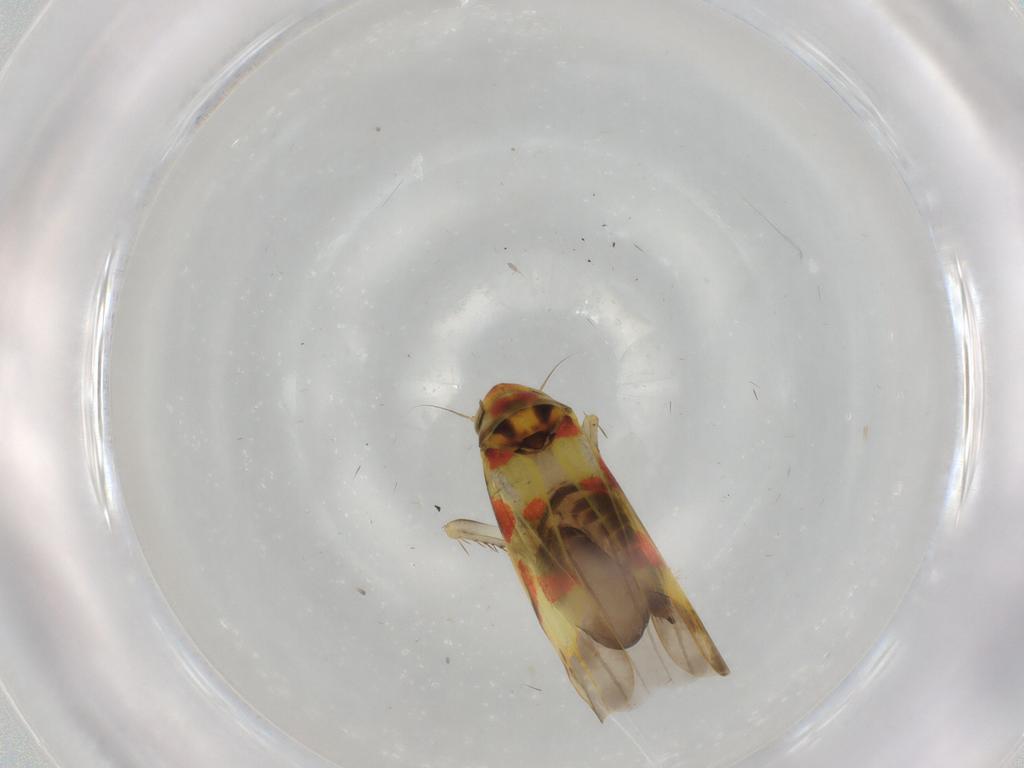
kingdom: Animalia
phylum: Arthropoda
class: Insecta
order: Hemiptera
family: Cicadellidae
